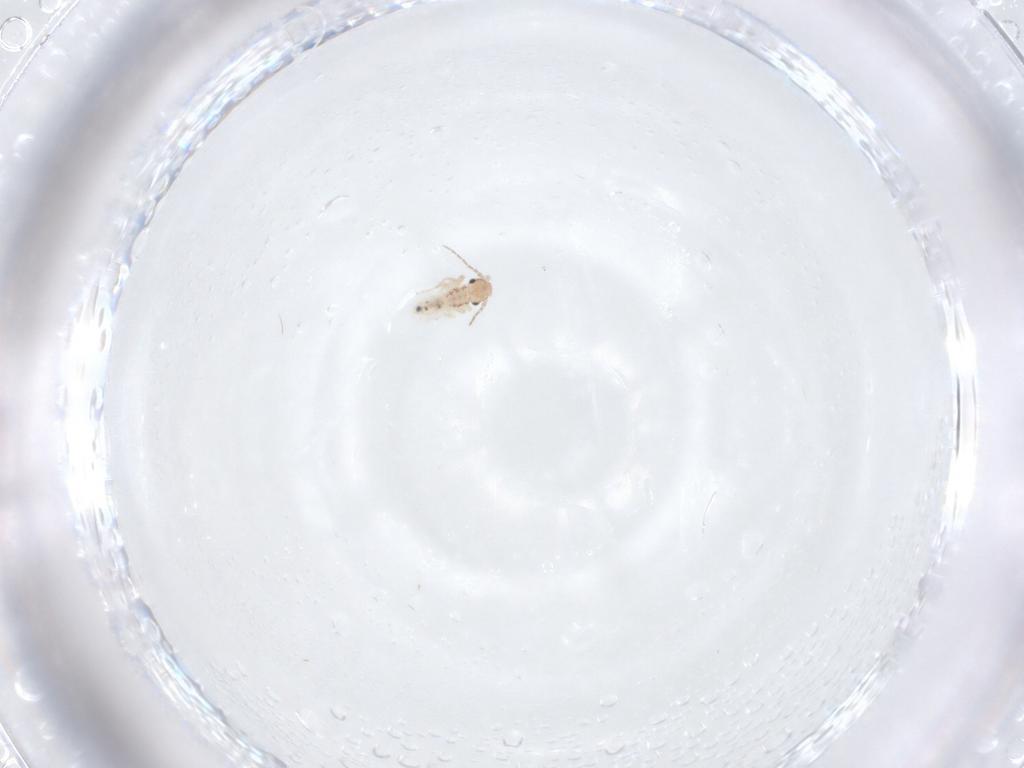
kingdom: Animalia
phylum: Arthropoda
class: Insecta
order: Psocodea
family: Lepidopsocidae
